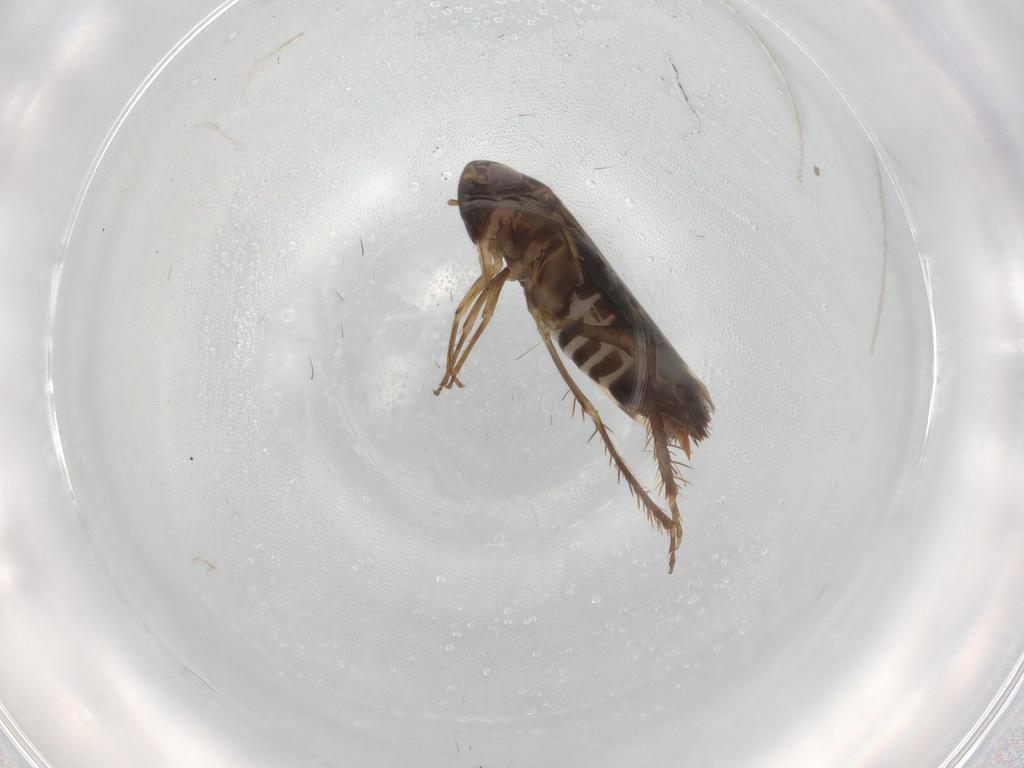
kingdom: Animalia
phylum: Arthropoda
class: Insecta
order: Hemiptera
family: Cicadellidae
